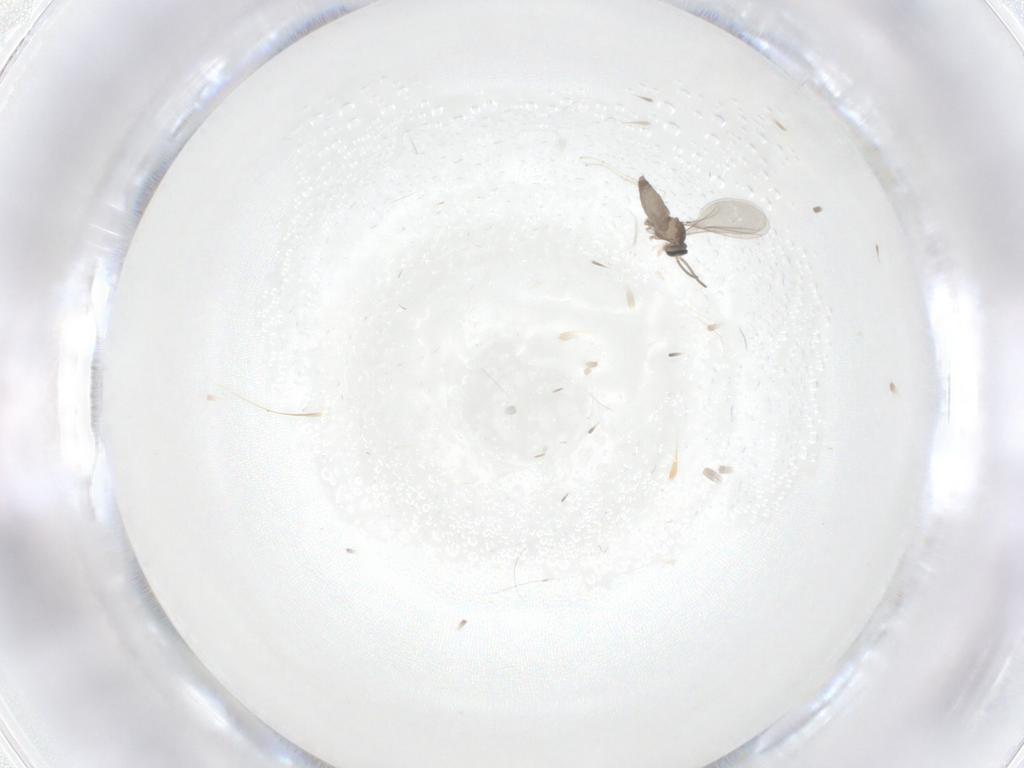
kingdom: Animalia
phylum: Arthropoda
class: Insecta
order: Diptera
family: Cecidomyiidae
